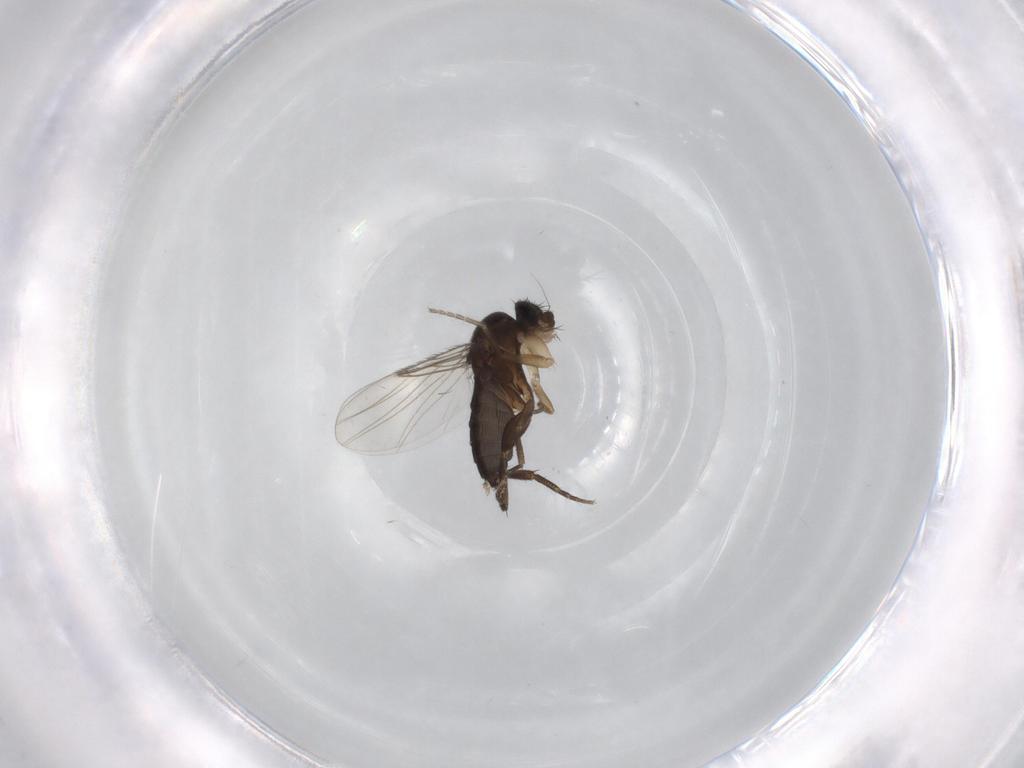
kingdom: Animalia
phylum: Arthropoda
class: Insecta
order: Diptera
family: Phoridae
